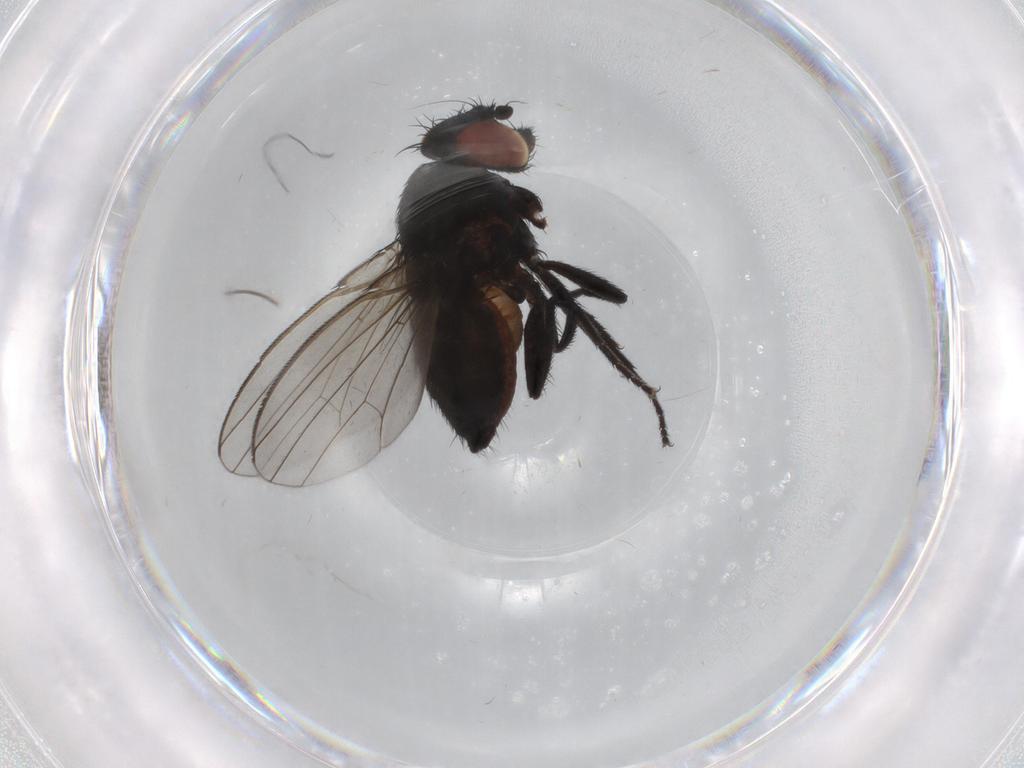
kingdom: Animalia
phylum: Arthropoda
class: Insecta
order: Diptera
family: Milichiidae
